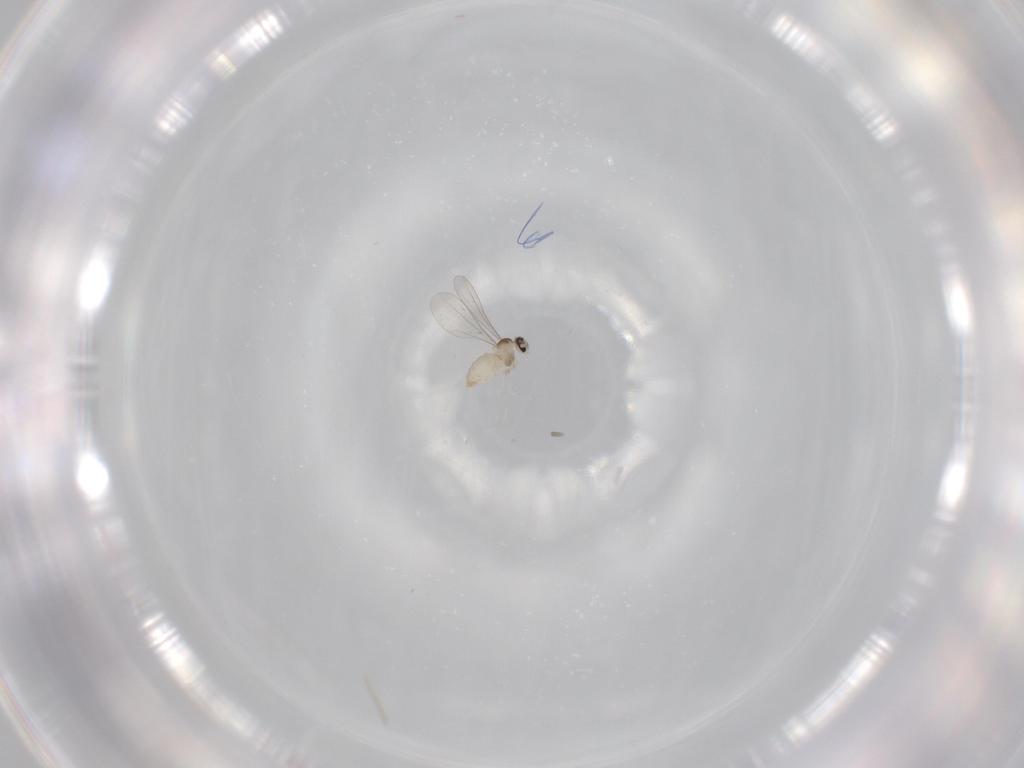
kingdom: Animalia
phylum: Arthropoda
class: Insecta
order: Diptera
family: Cecidomyiidae
